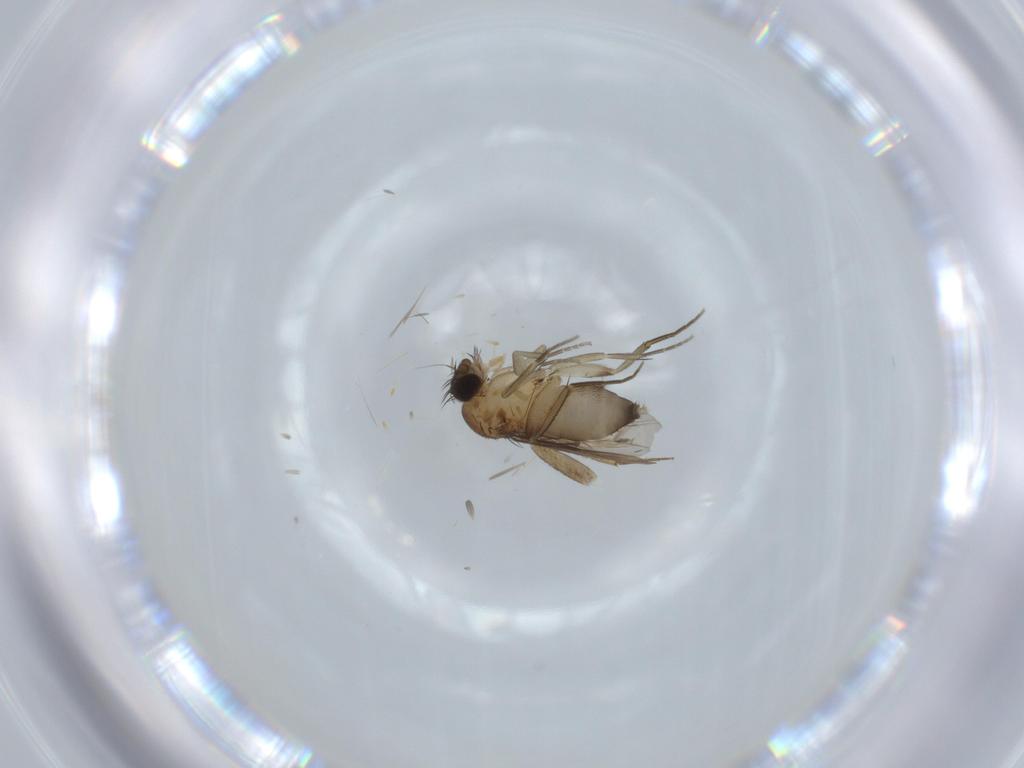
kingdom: Animalia
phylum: Arthropoda
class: Insecta
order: Diptera
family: Phoridae
